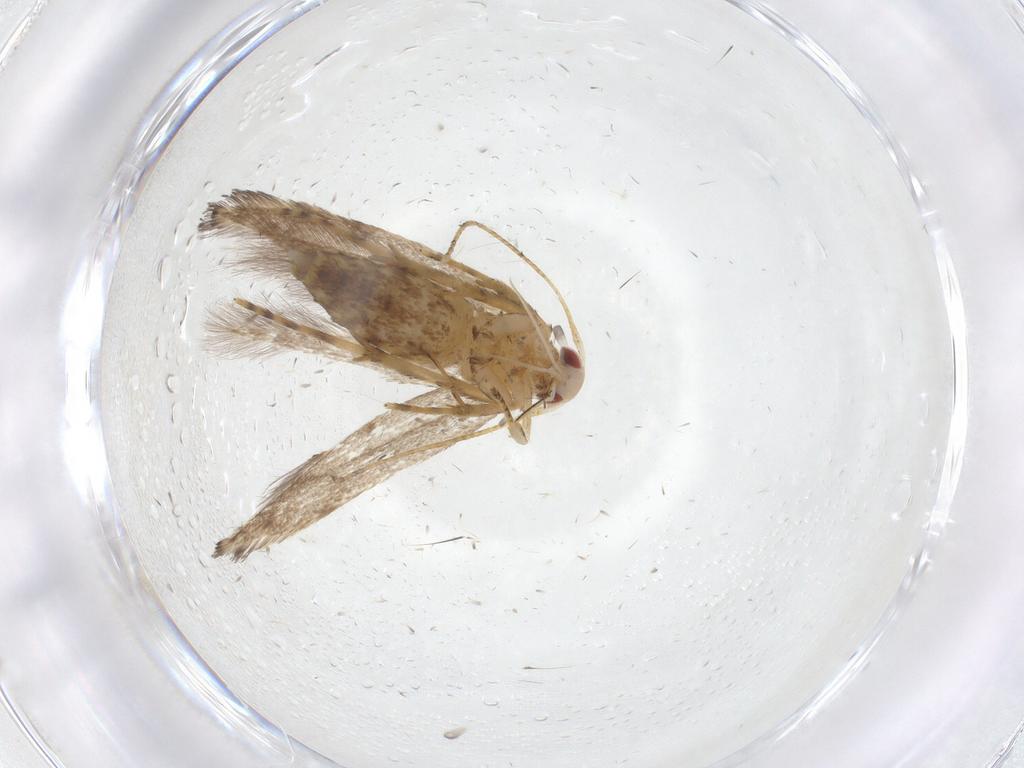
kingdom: Animalia
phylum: Arthropoda
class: Insecta
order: Lepidoptera
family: Cosmopterigidae
